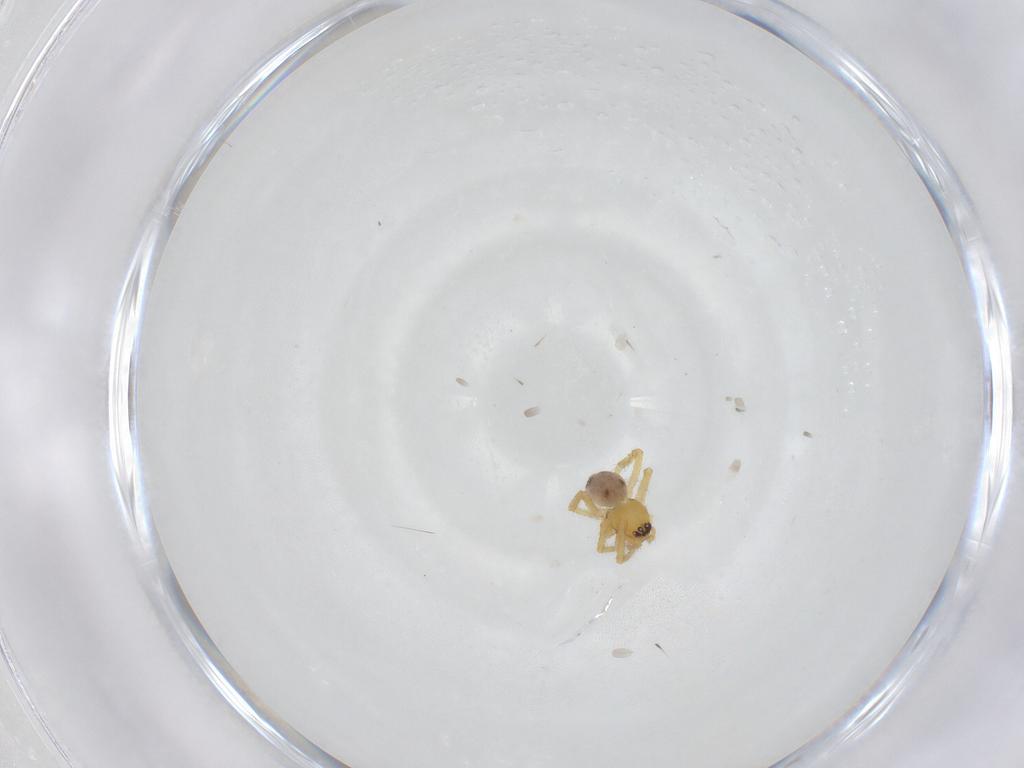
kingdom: Animalia
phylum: Arthropoda
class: Arachnida
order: Araneae
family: Theridiidae
